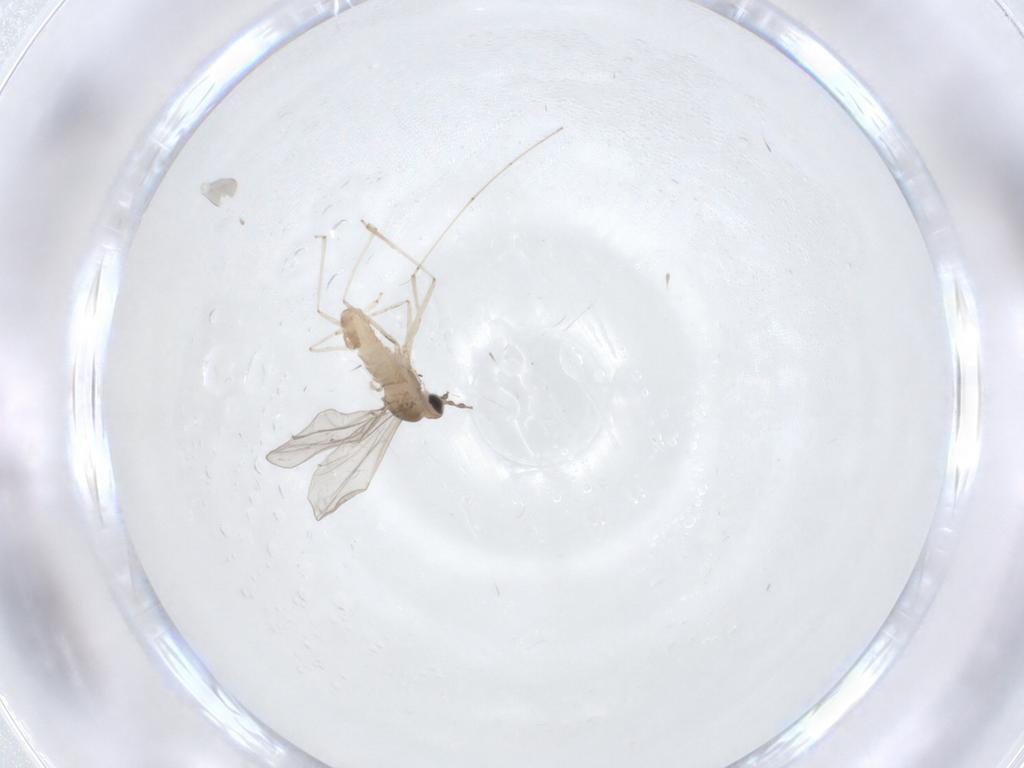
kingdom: Animalia
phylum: Arthropoda
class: Insecta
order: Diptera
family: Cecidomyiidae
